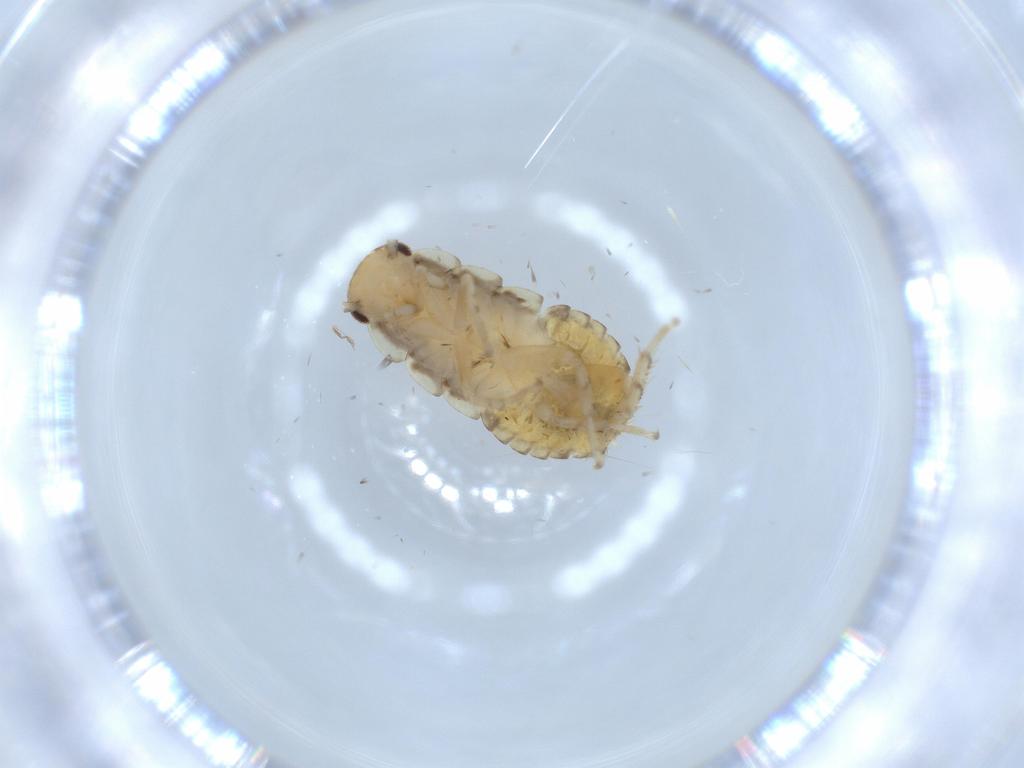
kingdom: Animalia
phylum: Arthropoda
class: Insecta
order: Blattodea
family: Ectobiidae
